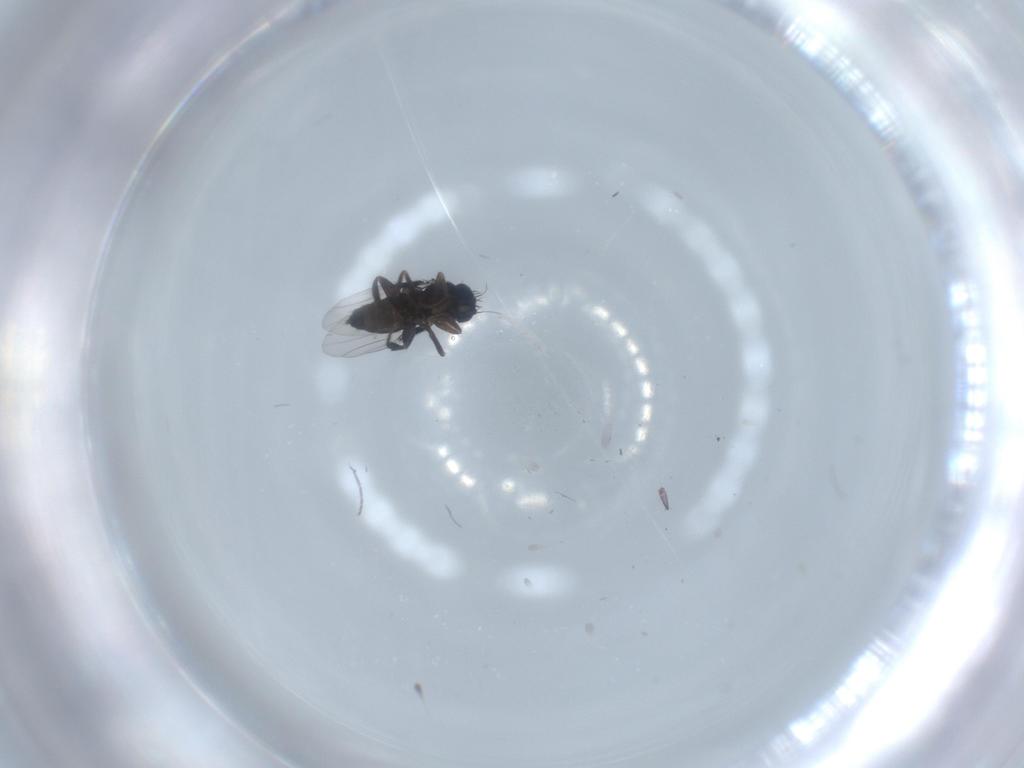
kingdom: Animalia
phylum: Arthropoda
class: Insecta
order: Diptera
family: Phoridae
